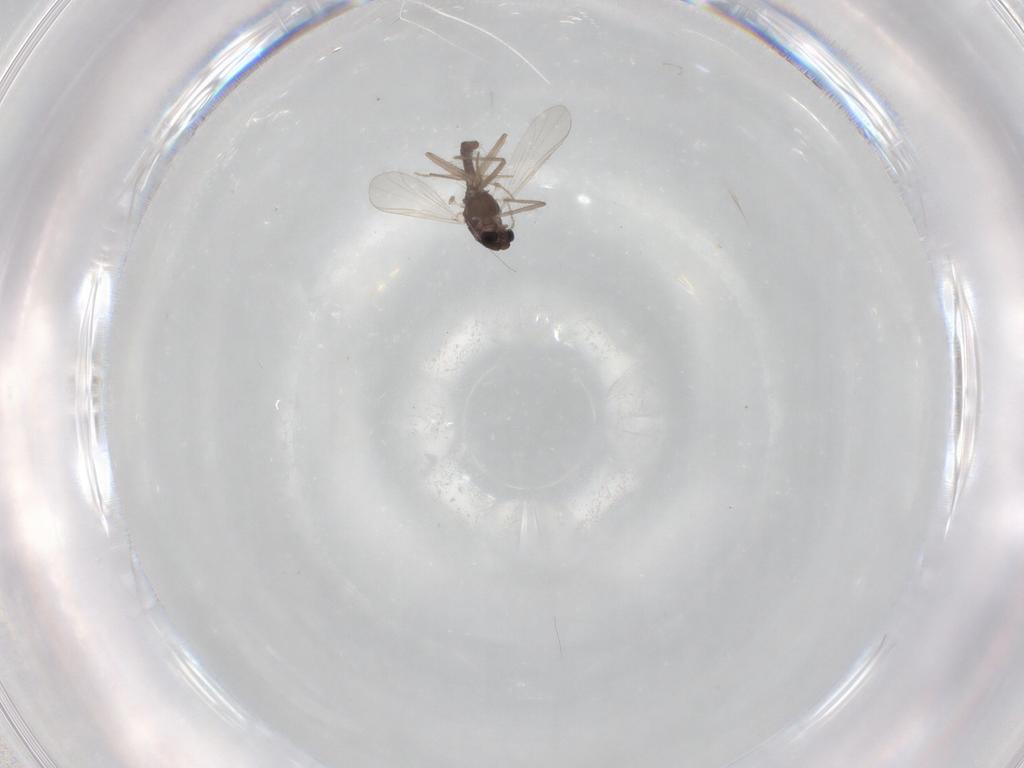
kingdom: Animalia
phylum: Arthropoda
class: Insecta
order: Diptera
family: Chironomidae
